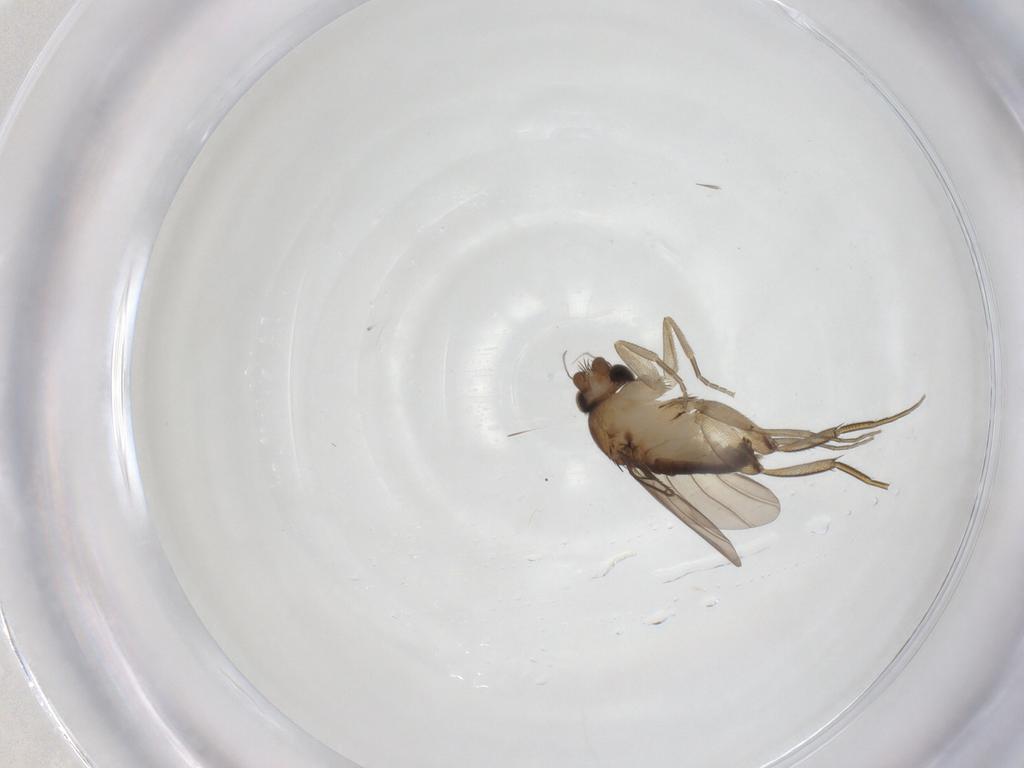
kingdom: Animalia
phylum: Arthropoda
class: Insecta
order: Diptera
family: Phoridae
